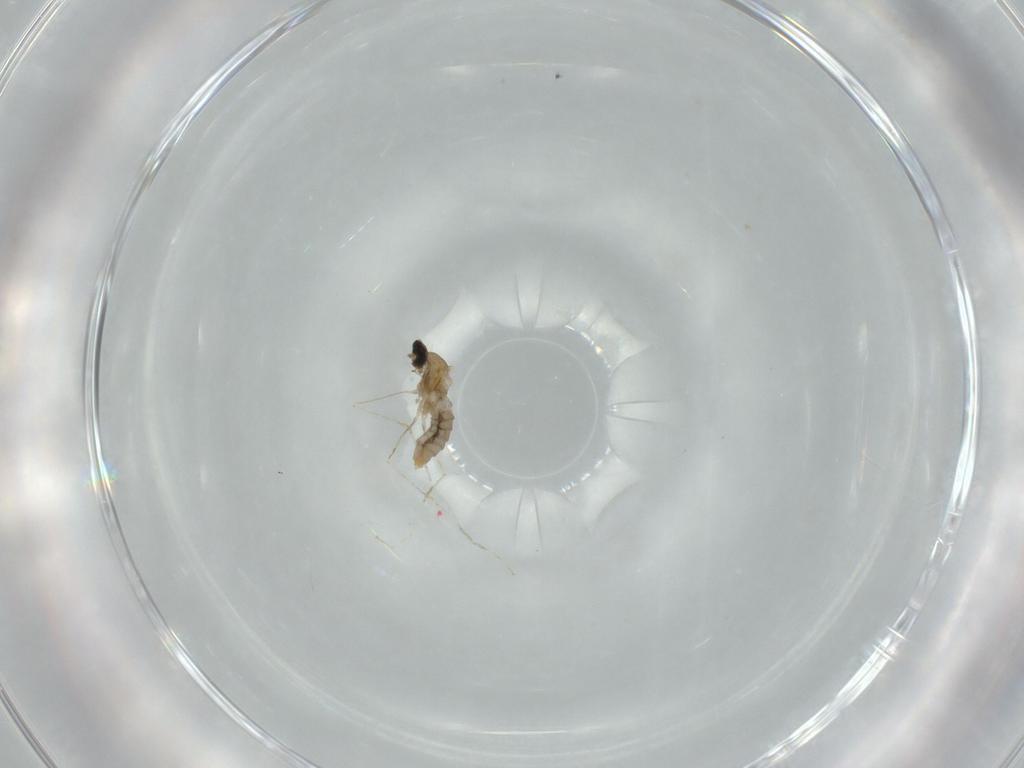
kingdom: Animalia
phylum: Arthropoda
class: Insecta
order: Diptera
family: Cecidomyiidae
